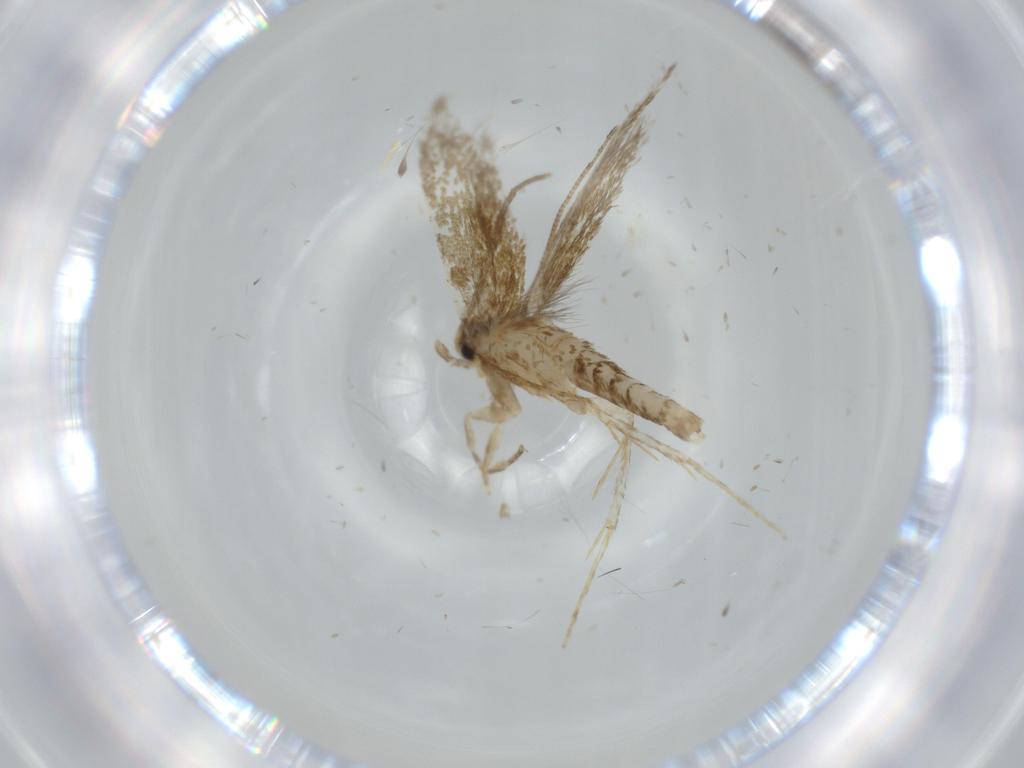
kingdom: Animalia
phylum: Arthropoda
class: Insecta
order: Lepidoptera
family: Tineidae
